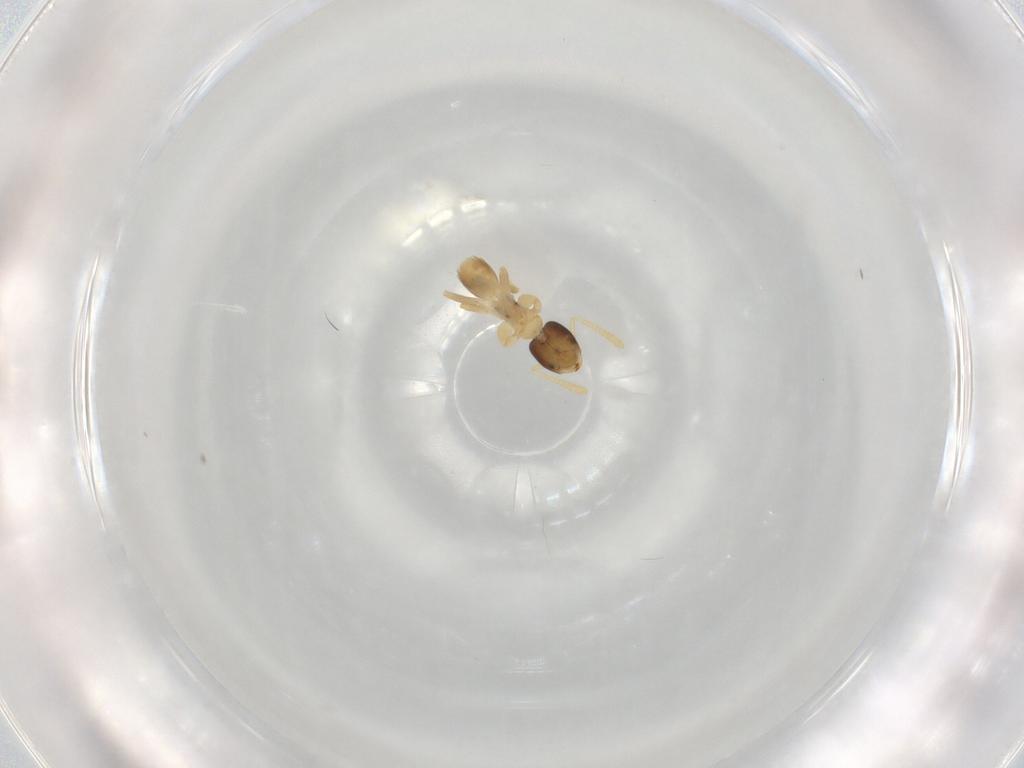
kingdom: Animalia
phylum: Arthropoda
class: Insecta
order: Hymenoptera
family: Formicidae
